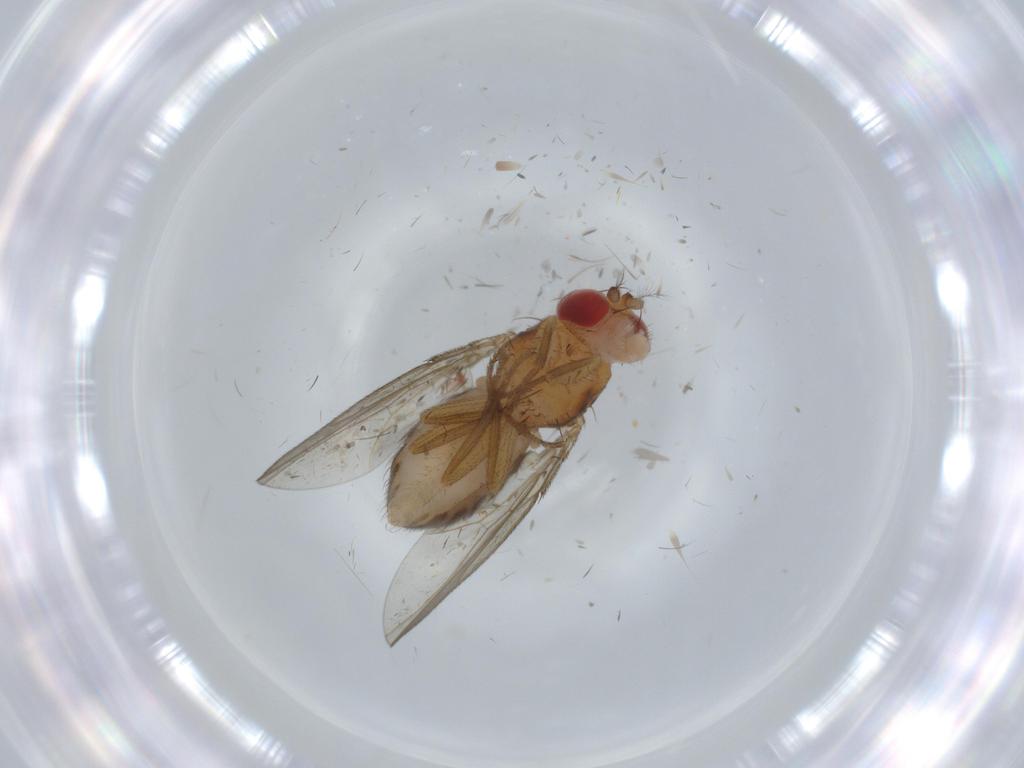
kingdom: Animalia
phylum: Arthropoda
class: Insecta
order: Diptera
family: Drosophilidae
